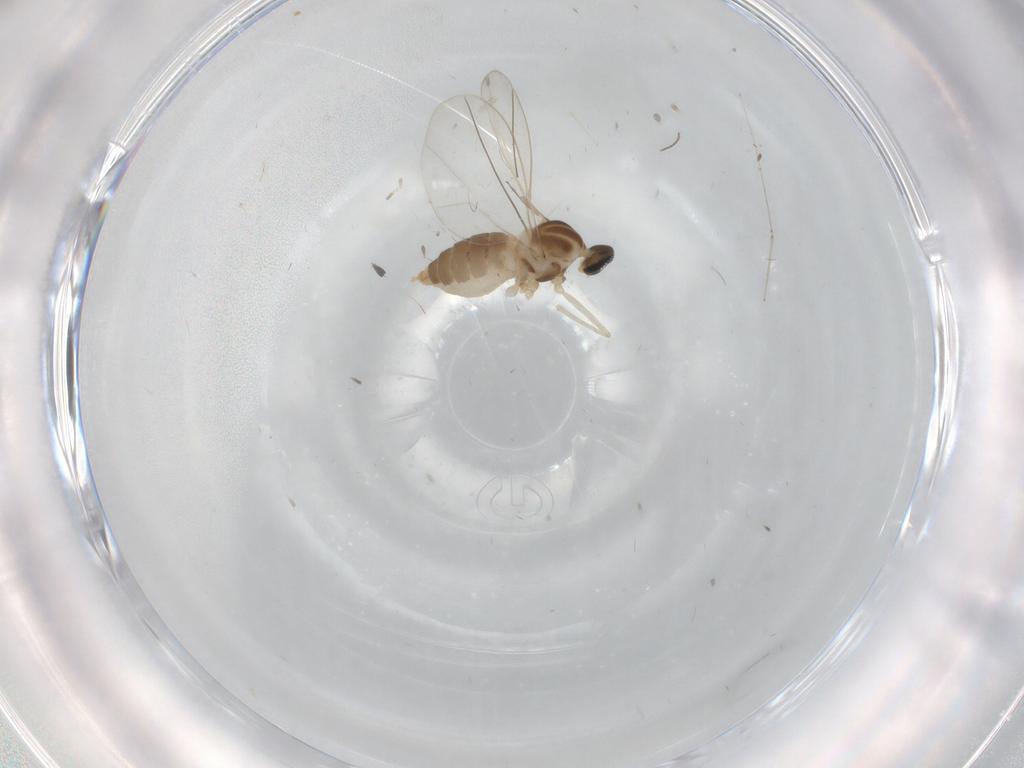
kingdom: Animalia
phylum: Arthropoda
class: Insecta
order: Diptera
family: Cecidomyiidae
